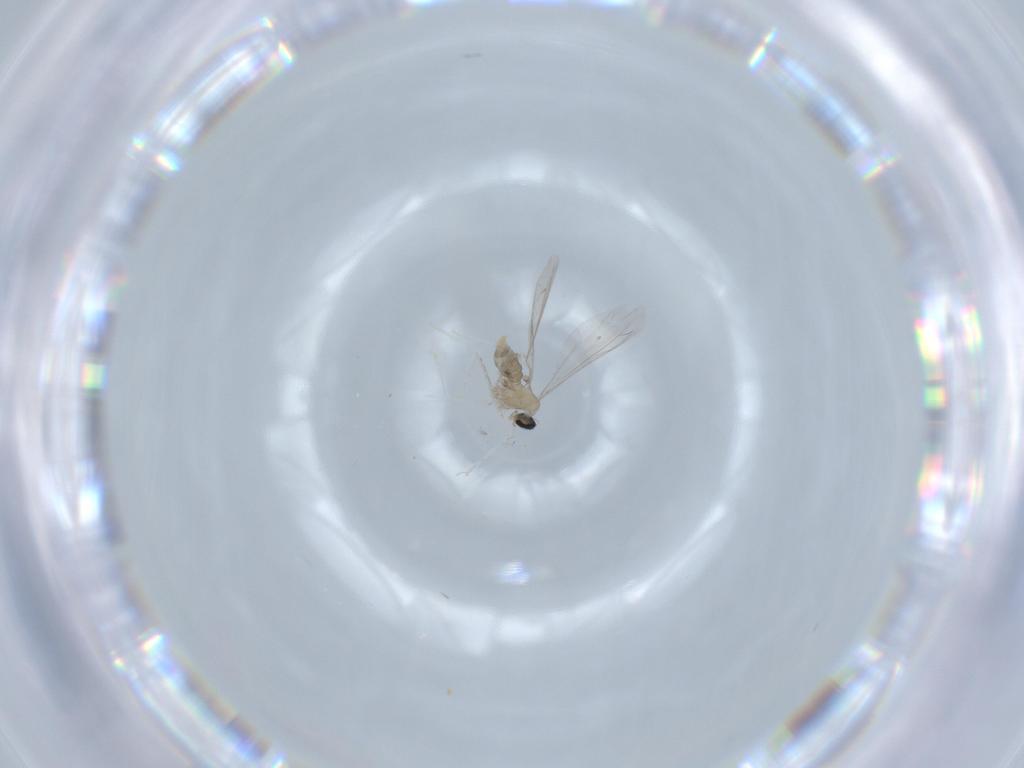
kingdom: Animalia
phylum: Arthropoda
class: Insecta
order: Diptera
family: Cecidomyiidae
